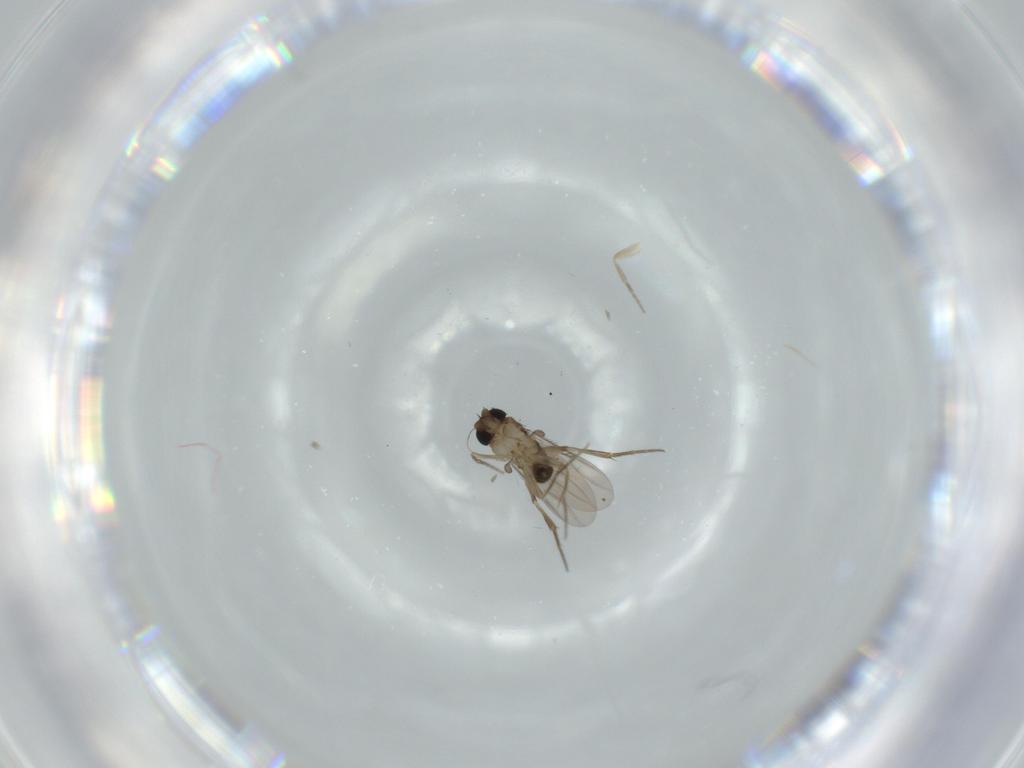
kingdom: Animalia
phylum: Arthropoda
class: Insecta
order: Diptera
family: Phoridae
